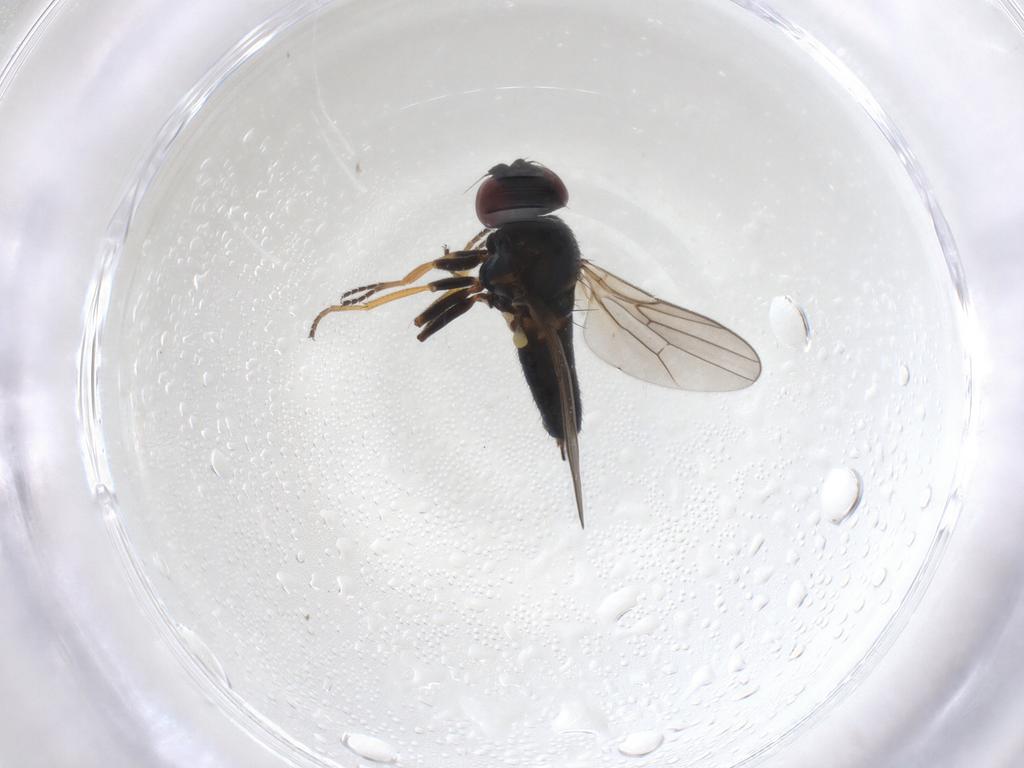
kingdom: Animalia
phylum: Arthropoda
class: Insecta
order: Diptera
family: Chloropidae
